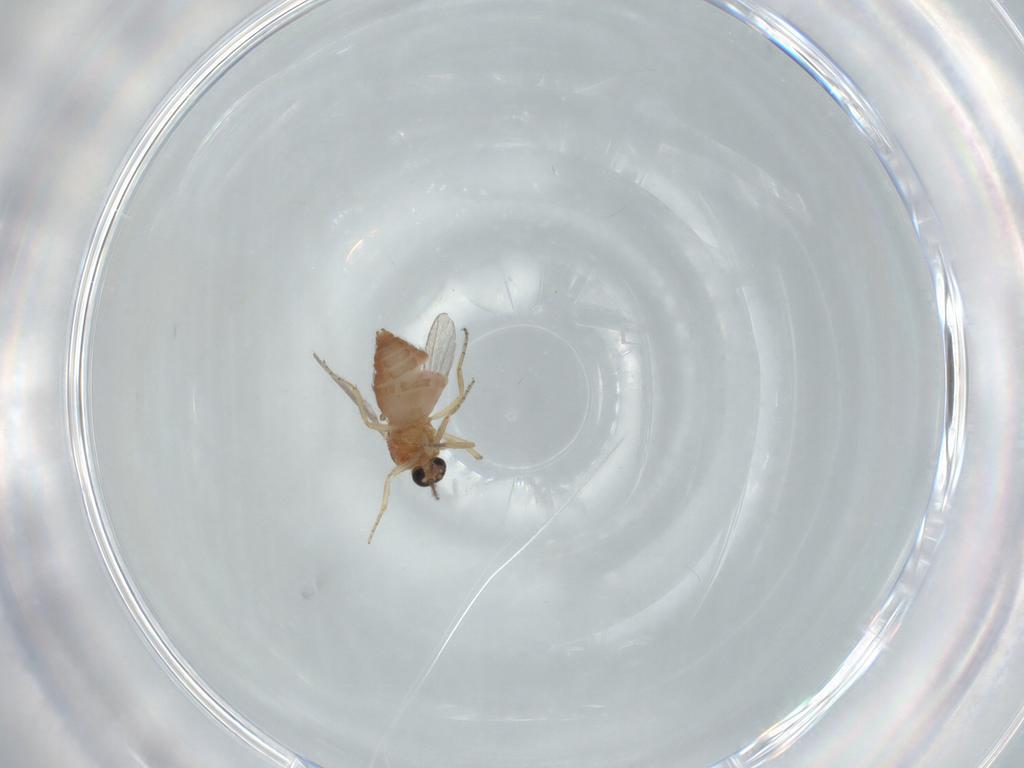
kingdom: Animalia
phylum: Arthropoda
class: Insecta
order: Diptera
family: Ceratopogonidae
